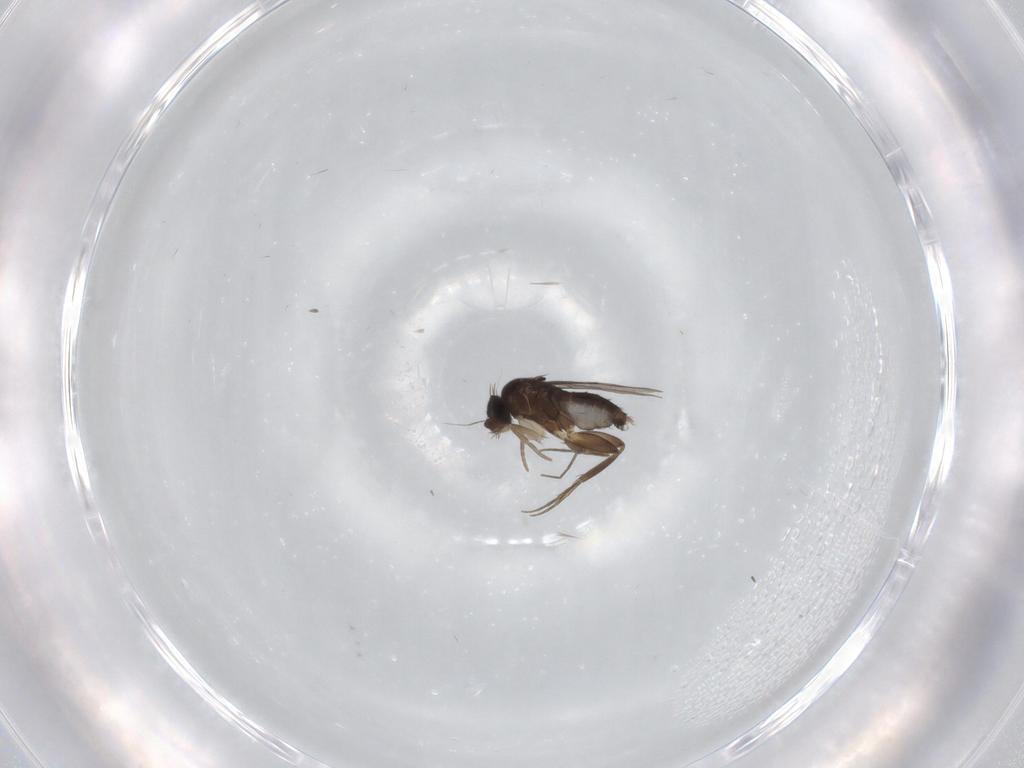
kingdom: Animalia
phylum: Arthropoda
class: Insecta
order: Diptera
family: Phoridae
